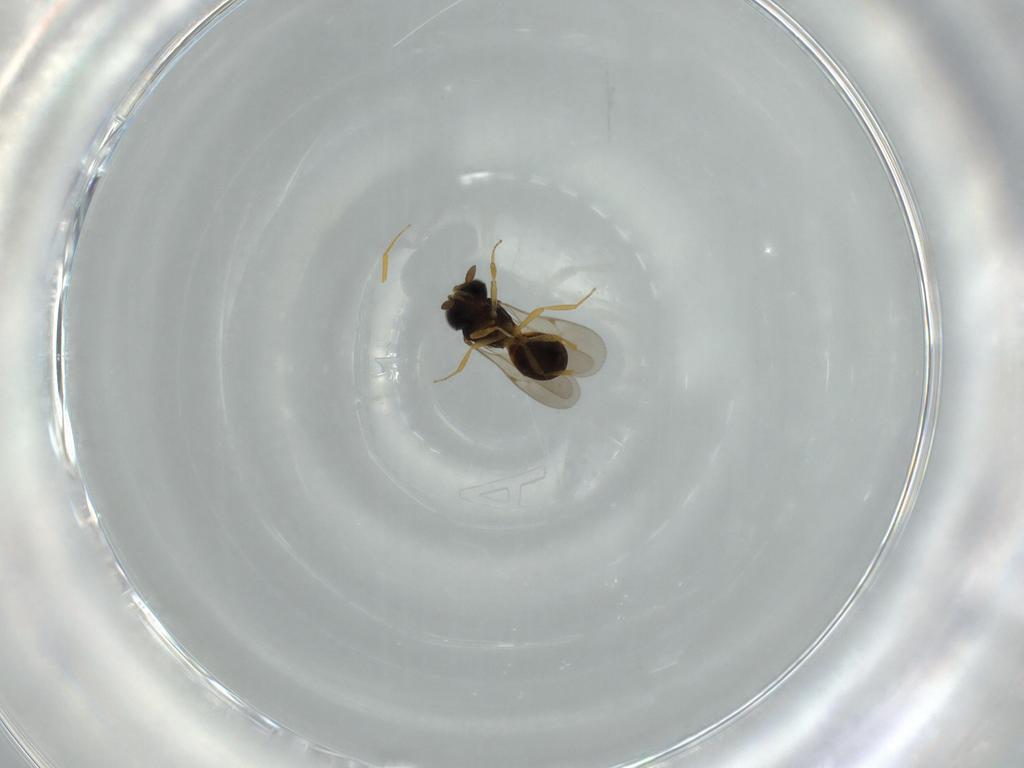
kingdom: Animalia
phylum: Arthropoda
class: Insecta
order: Hymenoptera
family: Scelionidae
